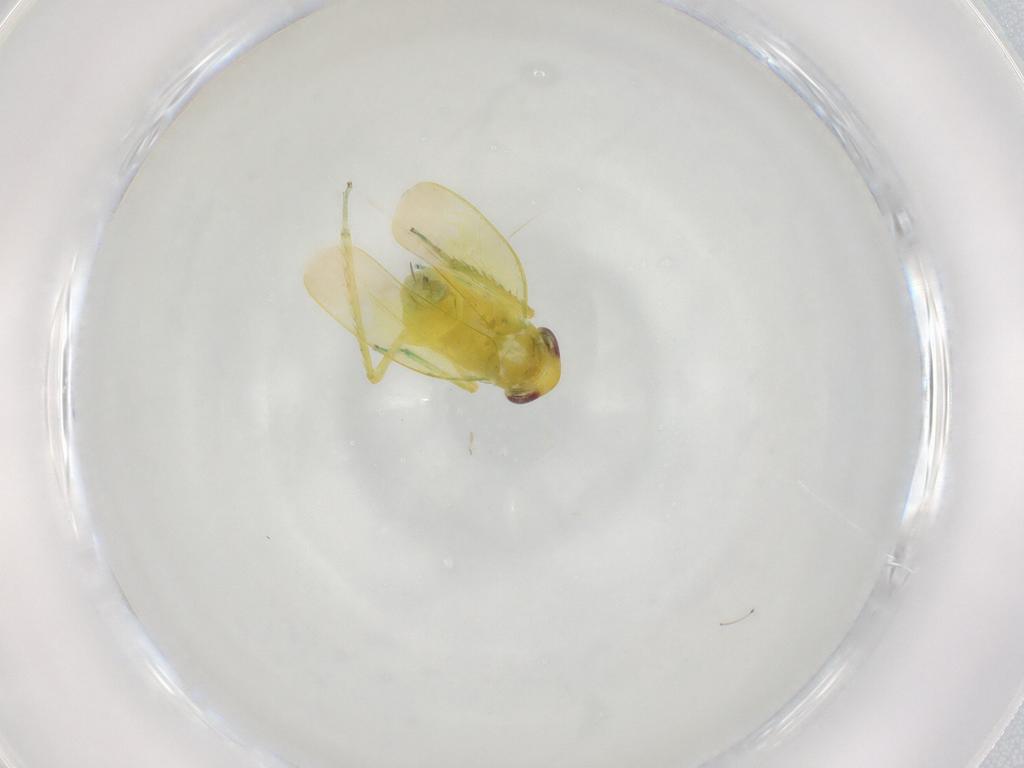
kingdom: Animalia
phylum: Arthropoda
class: Insecta
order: Hemiptera
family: Cicadellidae
